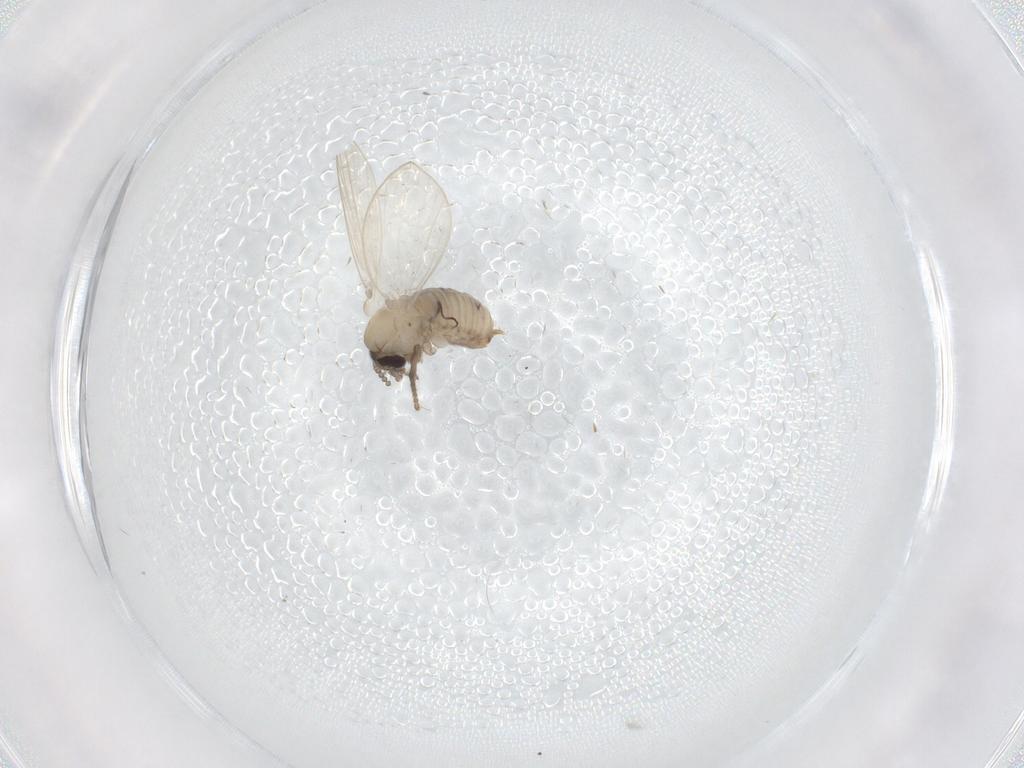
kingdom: Animalia
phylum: Arthropoda
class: Insecta
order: Diptera
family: Psychodidae
